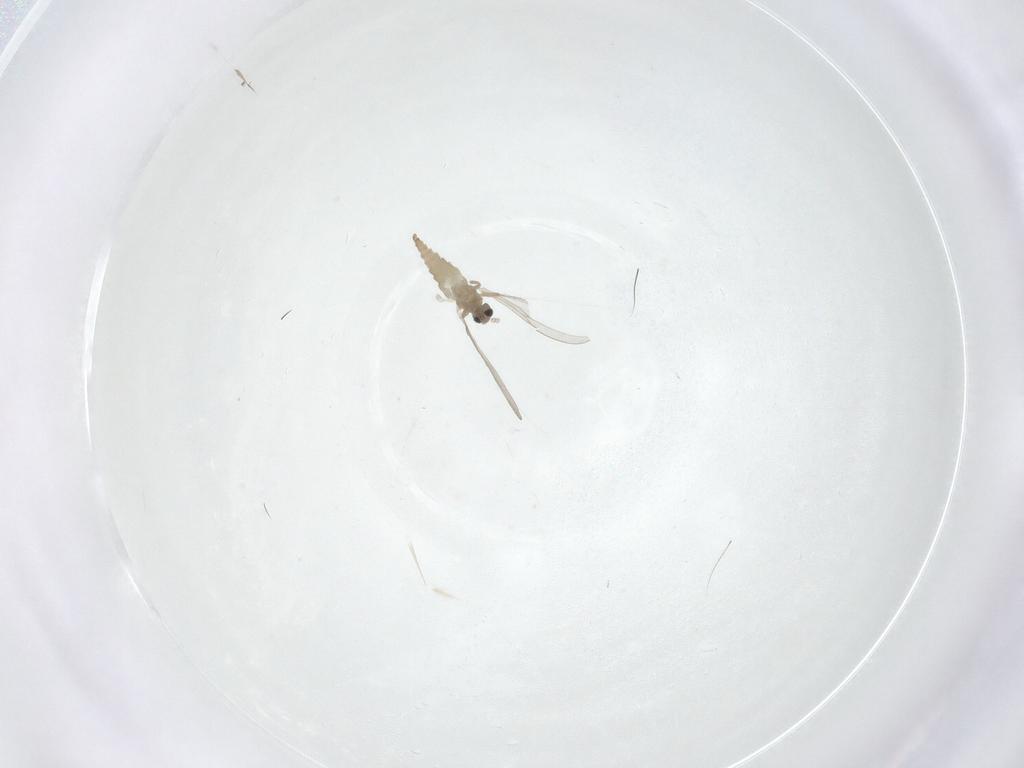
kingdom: Animalia
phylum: Arthropoda
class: Insecta
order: Diptera
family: Cecidomyiidae
